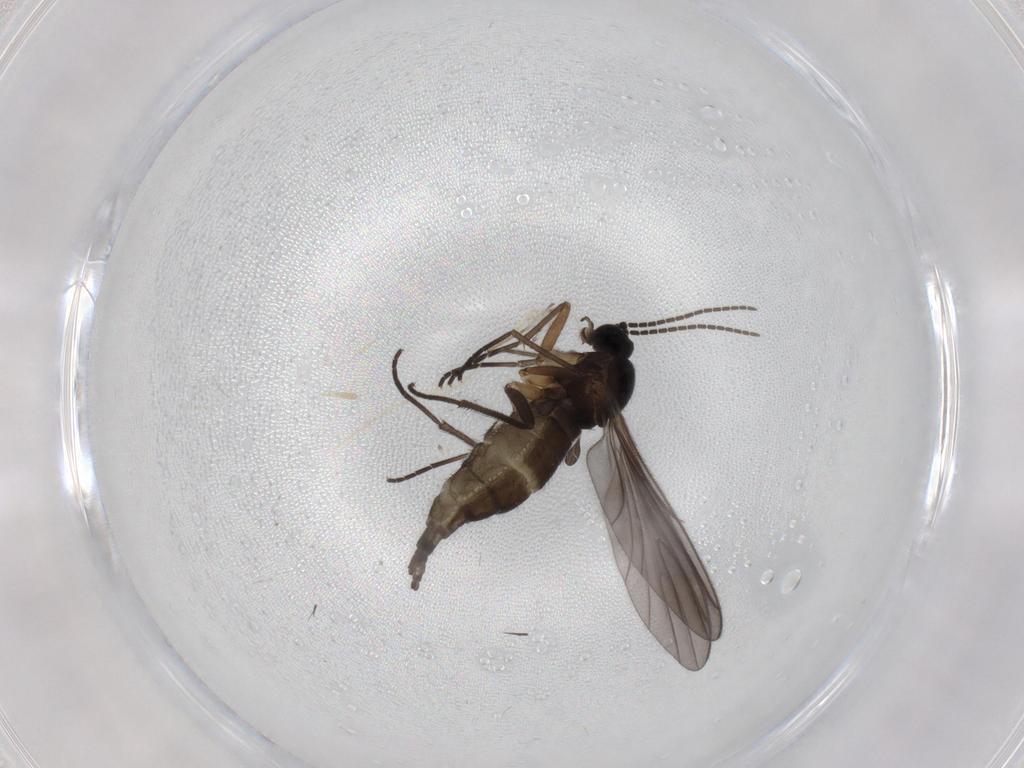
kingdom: Animalia
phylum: Arthropoda
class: Insecta
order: Diptera
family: Sciaridae
